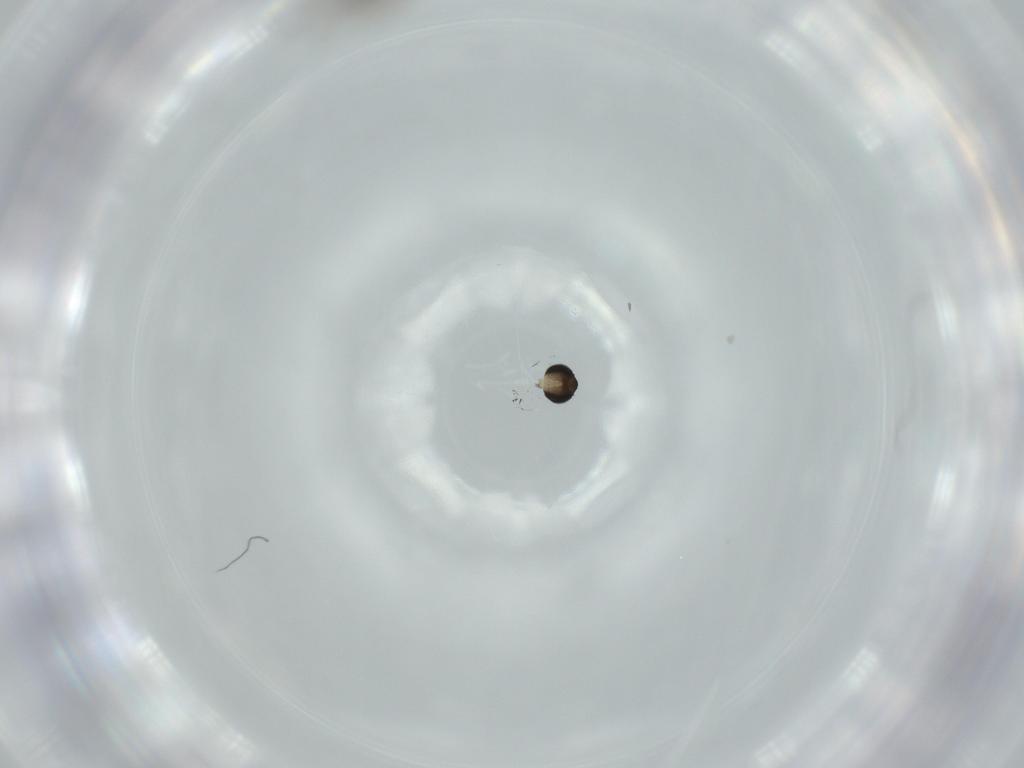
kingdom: Animalia
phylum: Arthropoda
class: Insecta
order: Diptera
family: Phoridae
